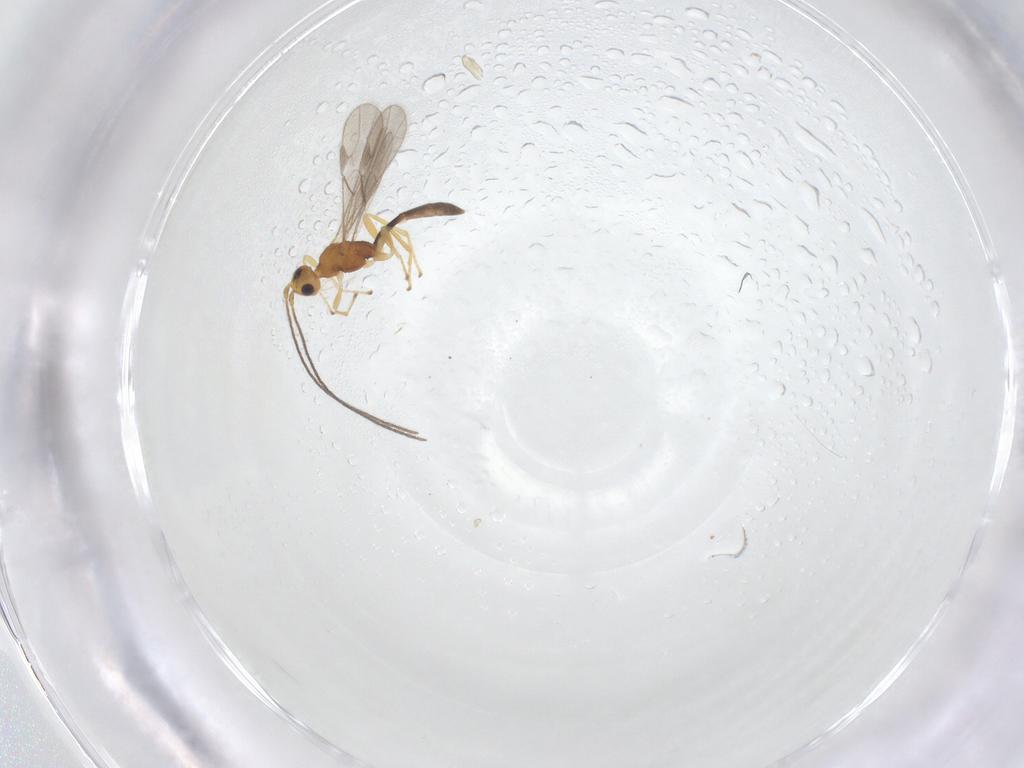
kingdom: Animalia
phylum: Arthropoda
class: Insecta
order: Hymenoptera
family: Braconidae
